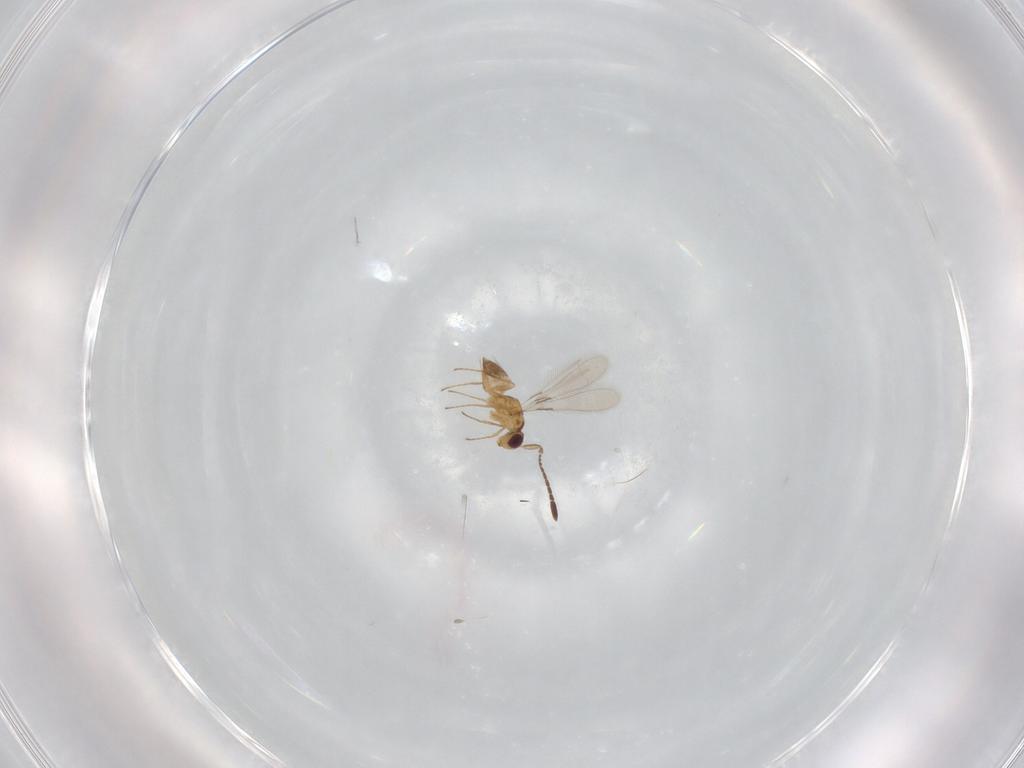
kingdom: Animalia
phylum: Arthropoda
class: Insecta
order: Hymenoptera
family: Mymaridae
